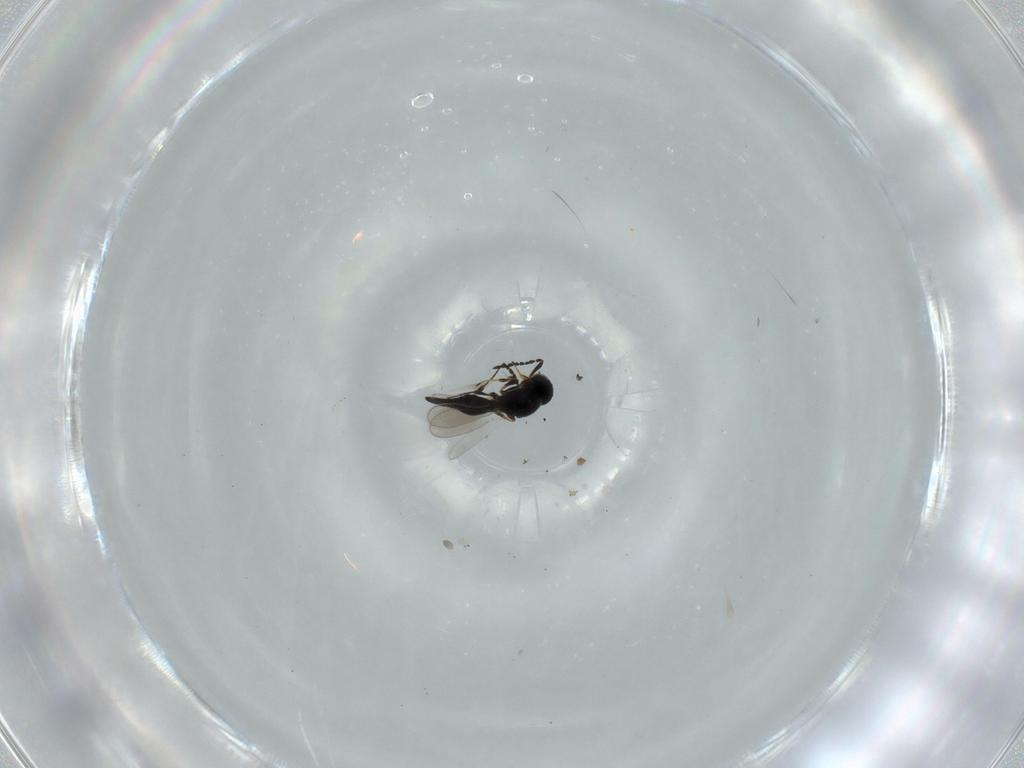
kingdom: Animalia
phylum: Arthropoda
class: Insecta
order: Hymenoptera
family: Platygastridae
